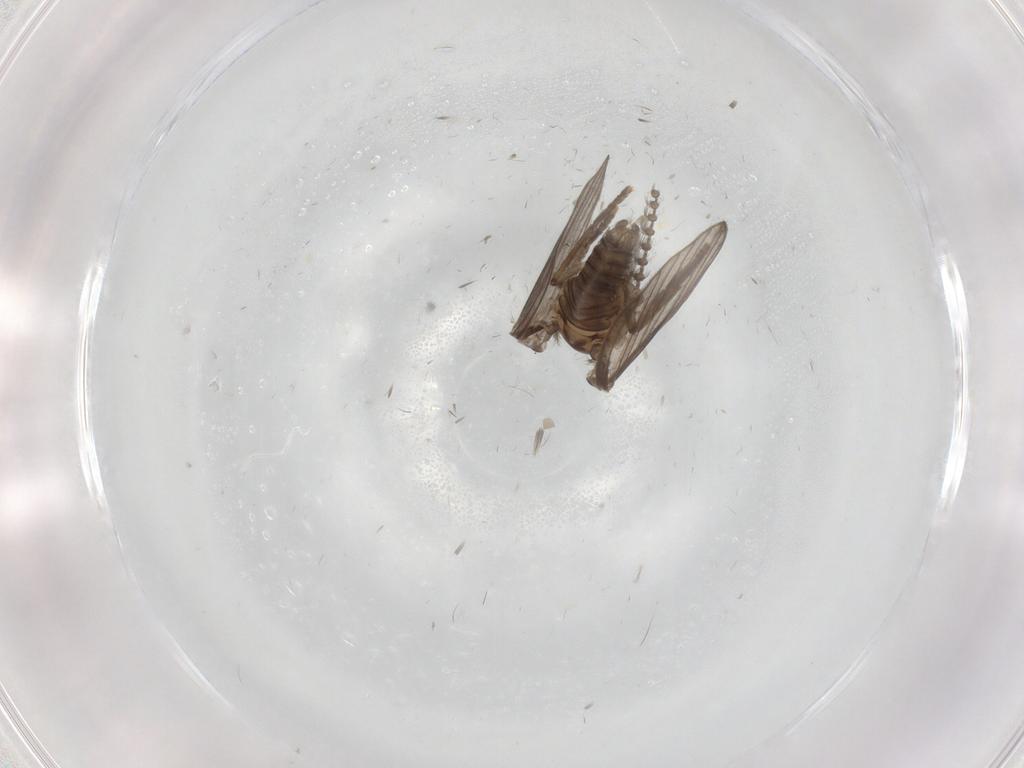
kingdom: Animalia
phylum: Arthropoda
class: Insecta
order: Diptera
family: Psychodidae
